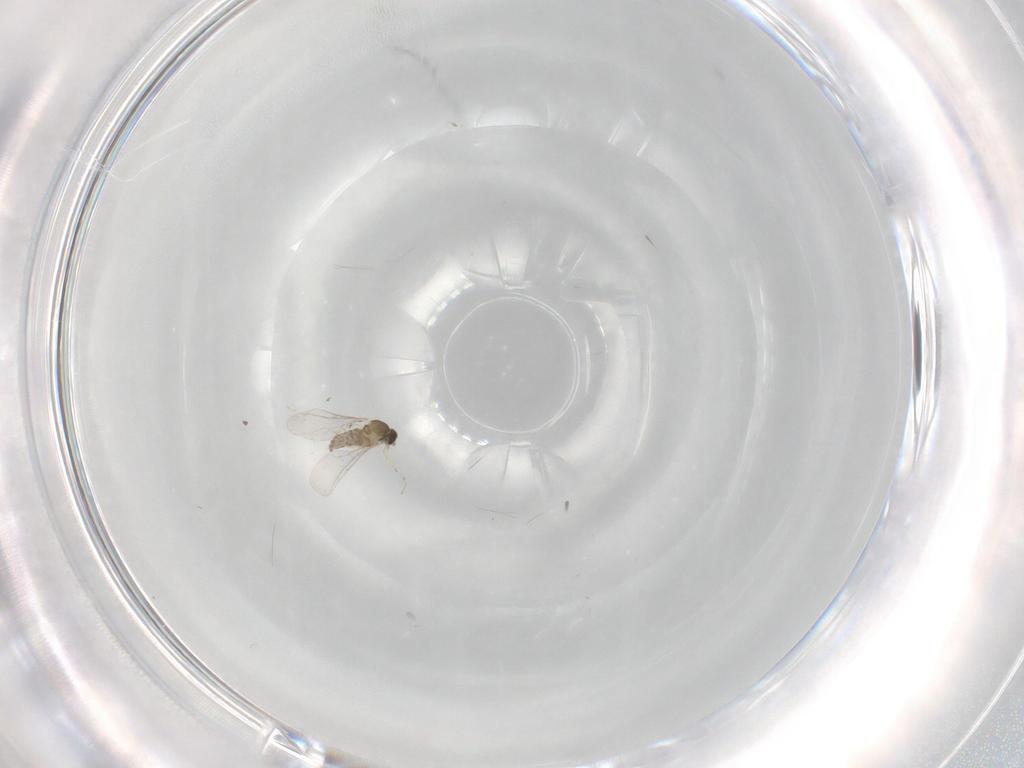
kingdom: Animalia
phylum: Arthropoda
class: Insecta
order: Diptera
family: Cecidomyiidae
